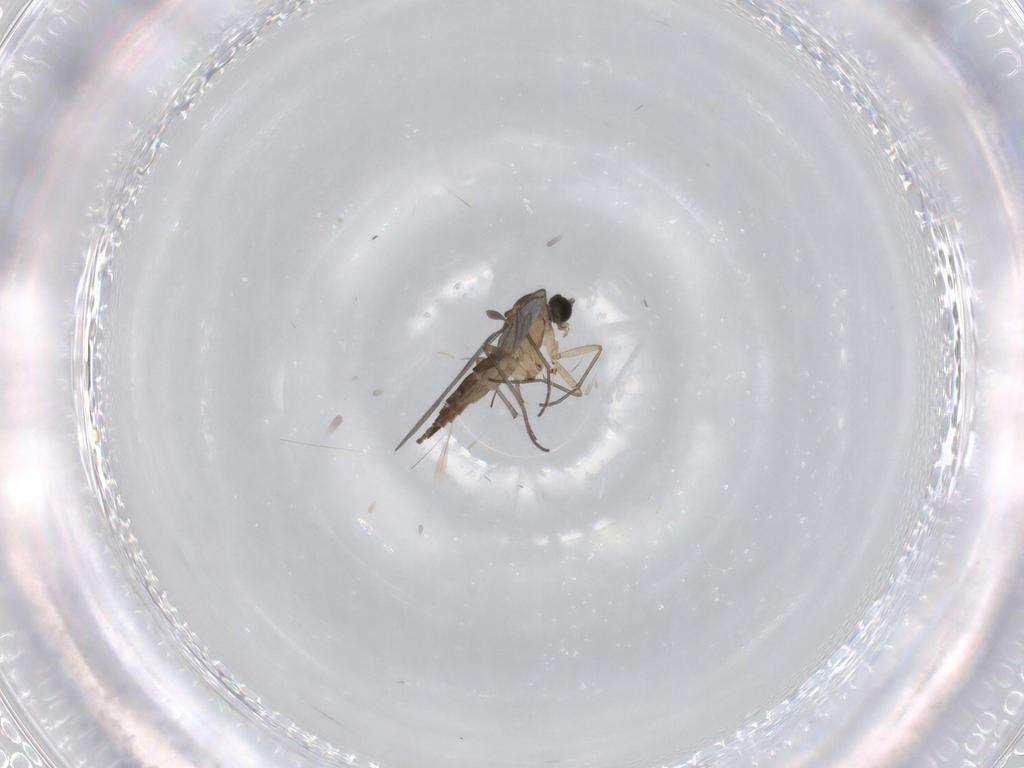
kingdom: Animalia
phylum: Arthropoda
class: Insecta
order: Diptera
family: Sciaridae
